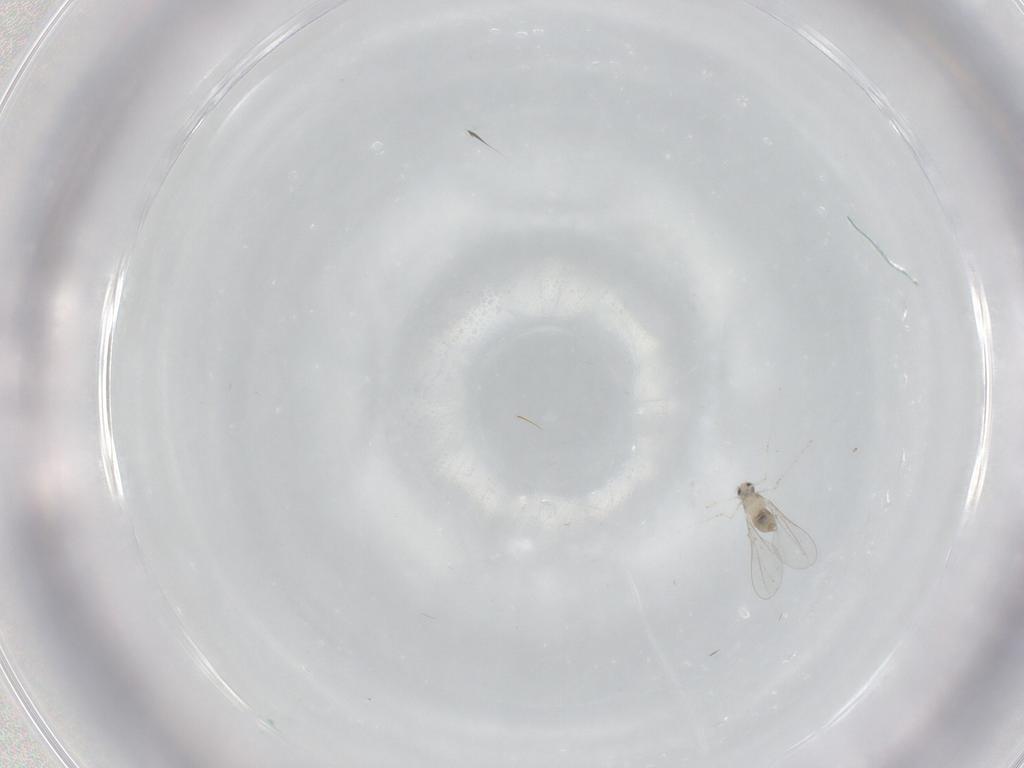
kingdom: Animalia
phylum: Arthropoda
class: Insecta
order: Diptera
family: Cecidomyiidae
